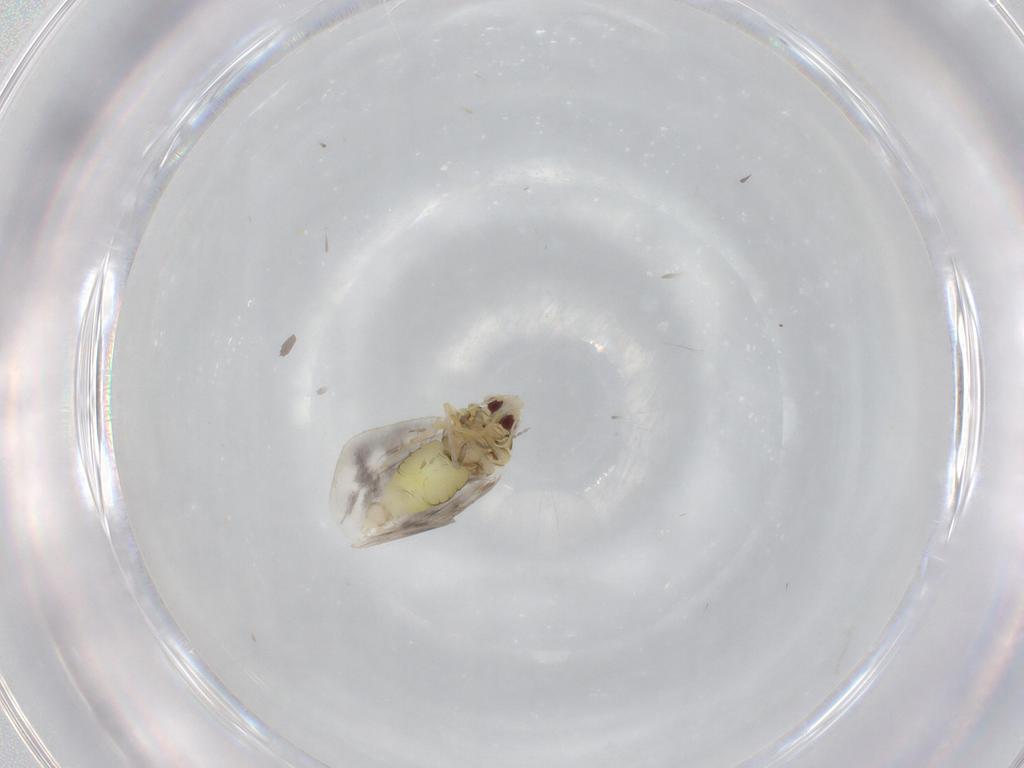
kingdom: Animalia
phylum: Arthropoda
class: Insecta
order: Hemiptera
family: Aleyrodidae
